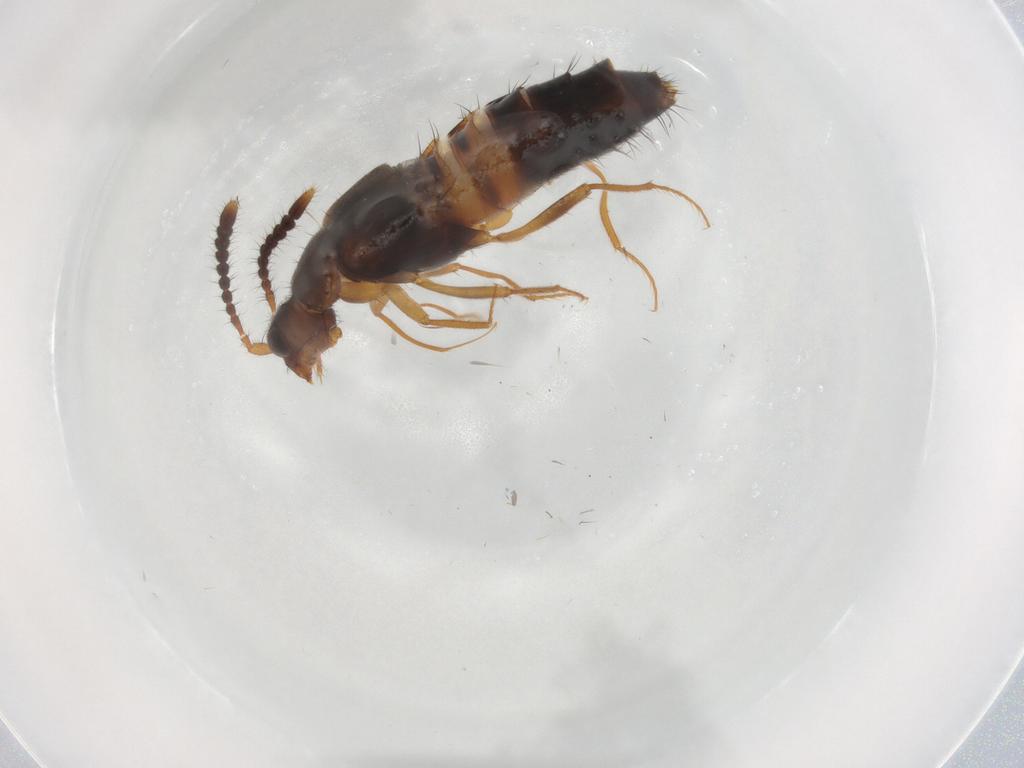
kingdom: Animalia
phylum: Arthropoda
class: Insecta
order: Coleoptera
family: Staphylinidae
